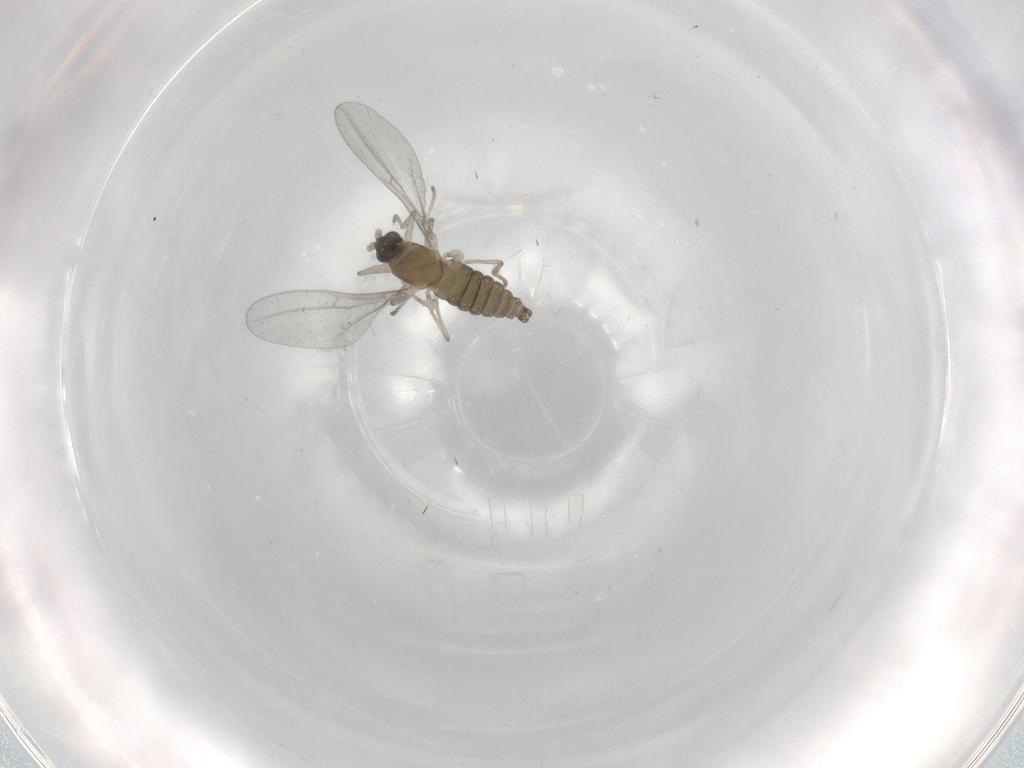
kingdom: Animalia
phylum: Arthropoda
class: Insecta
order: Diptera
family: Cecidomyiidae
